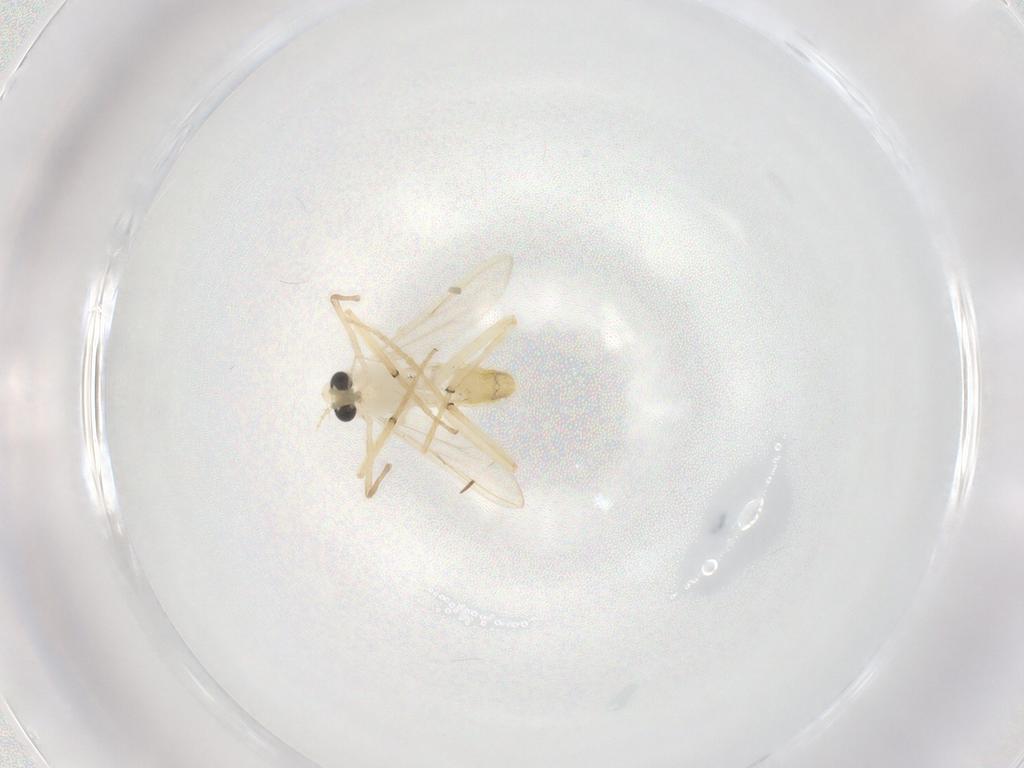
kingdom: Animalia
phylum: Arthropoda
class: Insecta
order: Diptera
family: Chironomidae
